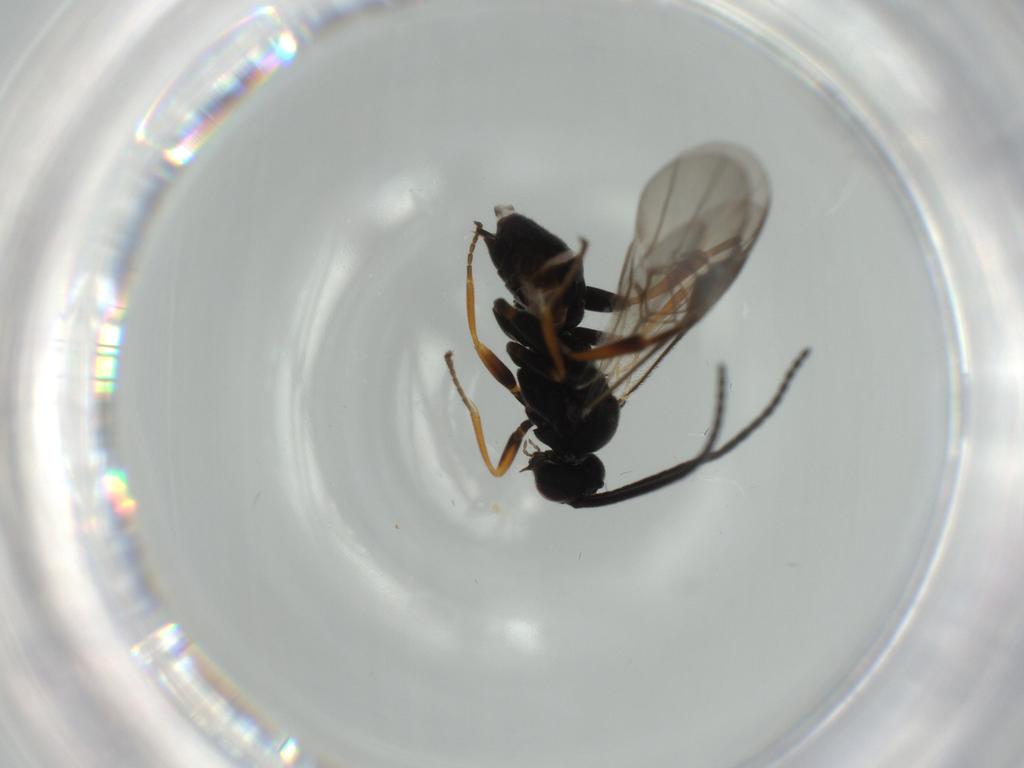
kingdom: Animalia
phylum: Arthropoda
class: Insecta
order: Hymenoptera
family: Braconidae
